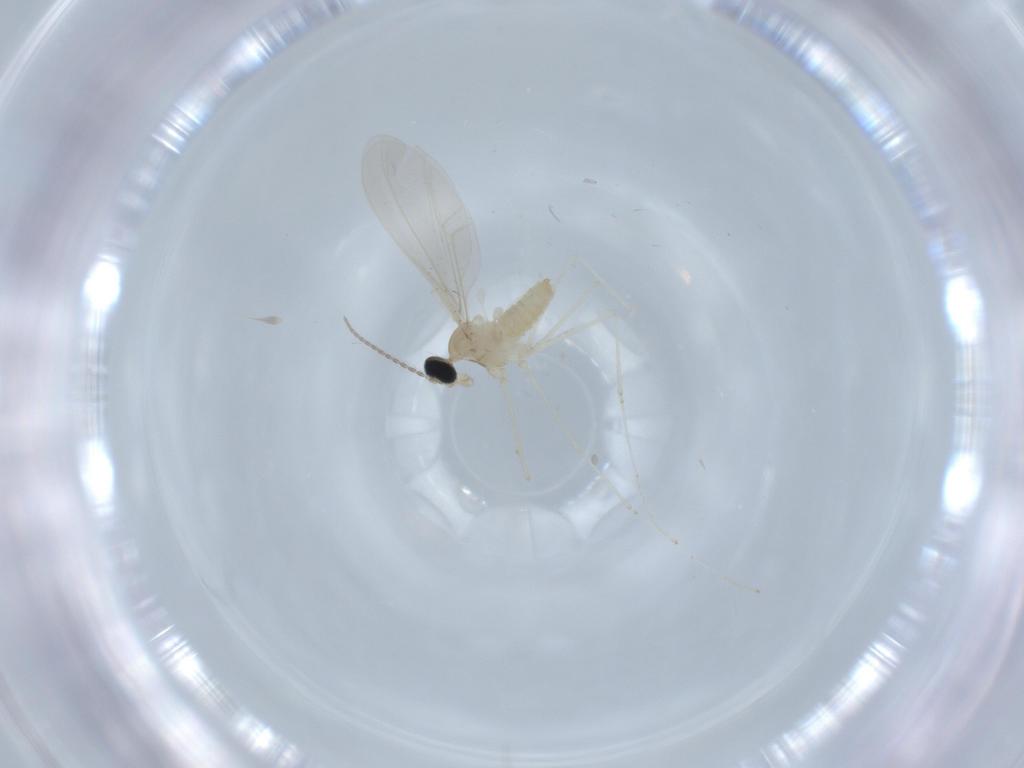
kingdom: Animalia
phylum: Arthropoda
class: Insecta
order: Diptera
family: Cecidomyiidae
